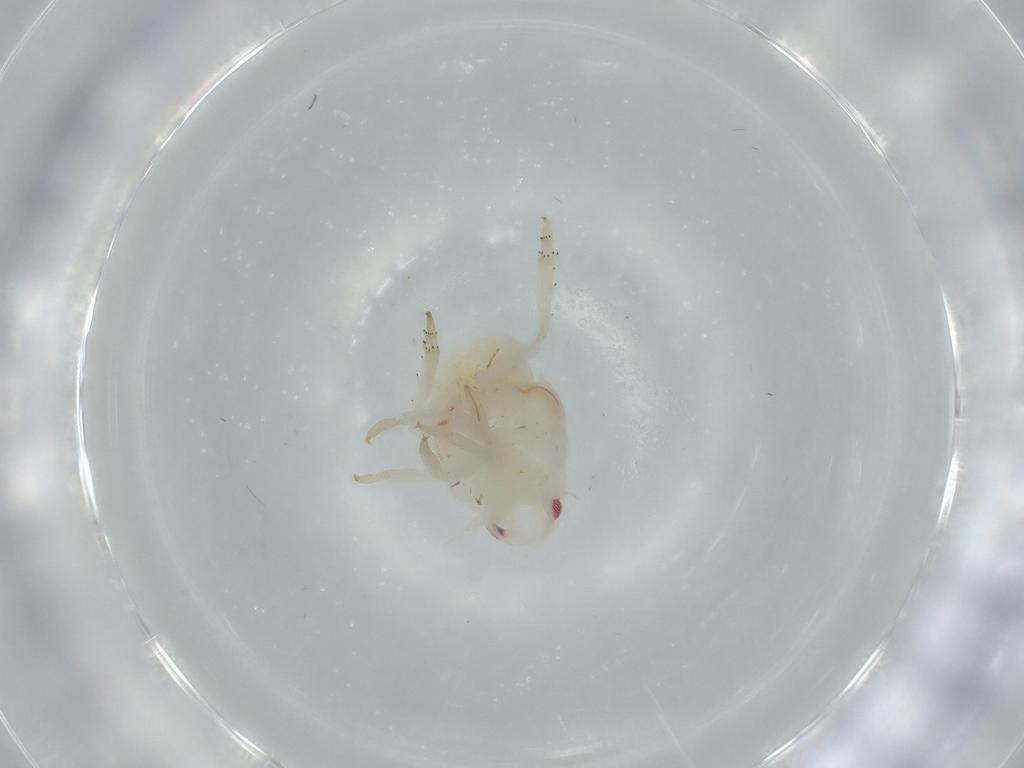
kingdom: Animalia
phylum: Arthropoda
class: Insecta
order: Hemiptera
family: Flatidae
